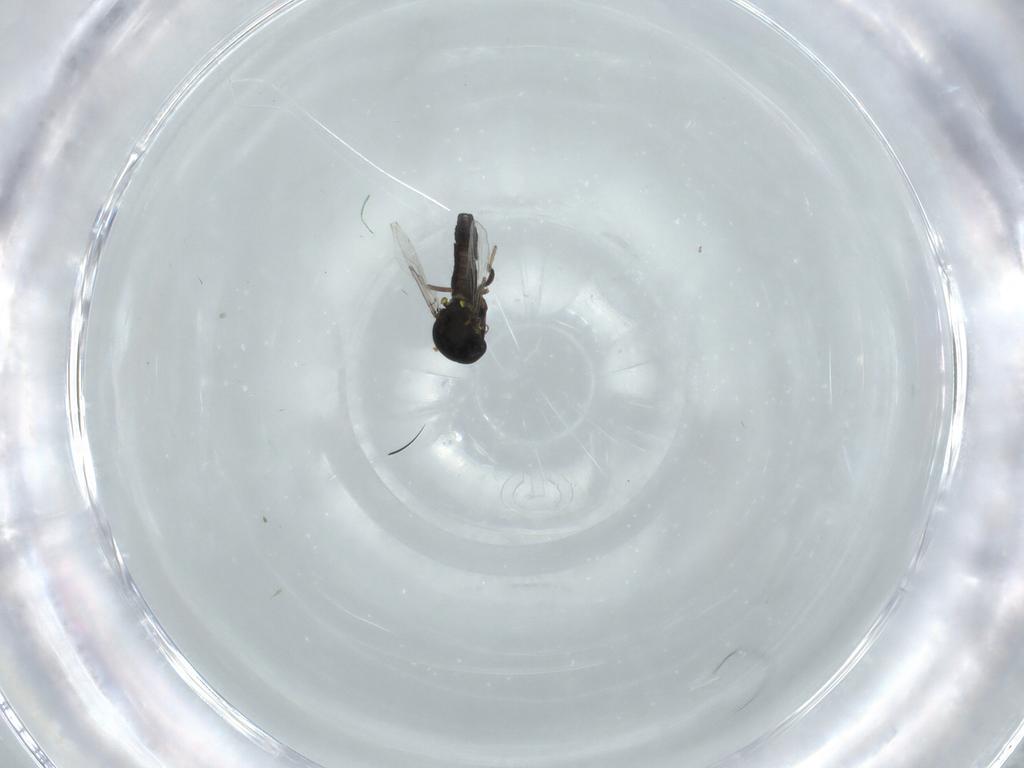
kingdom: Animalia
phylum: Arthropoda
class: Insecta
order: Diptera
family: Ceratopogonidae
